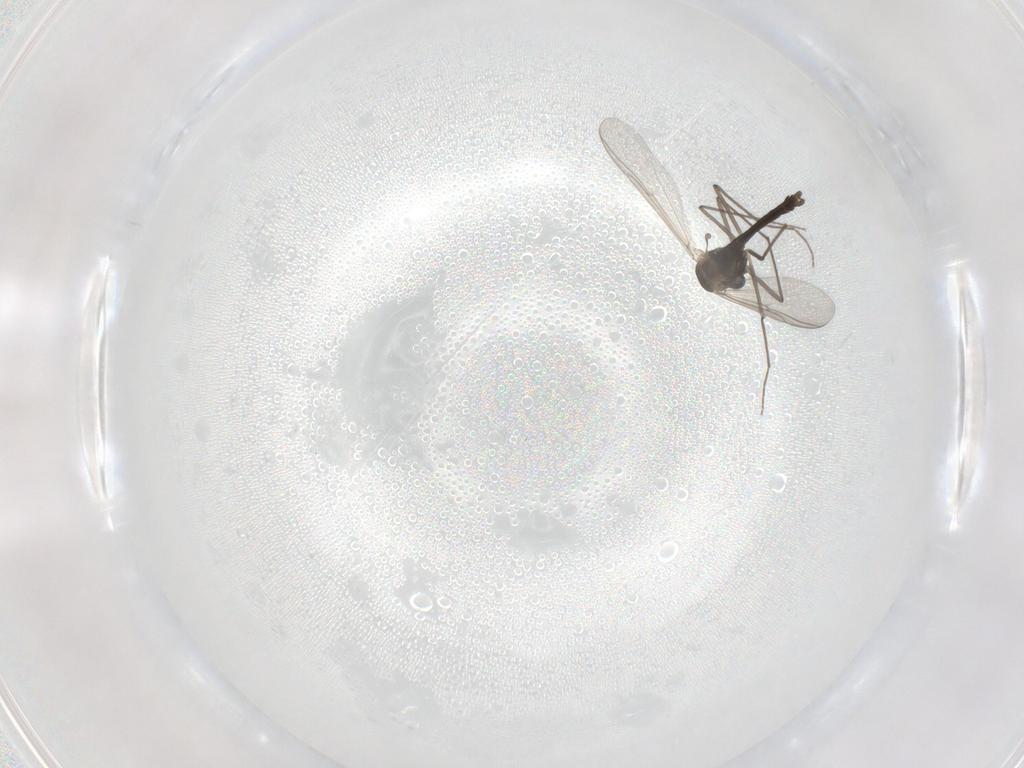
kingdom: Animalia
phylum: Arthropoda
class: Insecta
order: Diptera
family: Chironomidae
